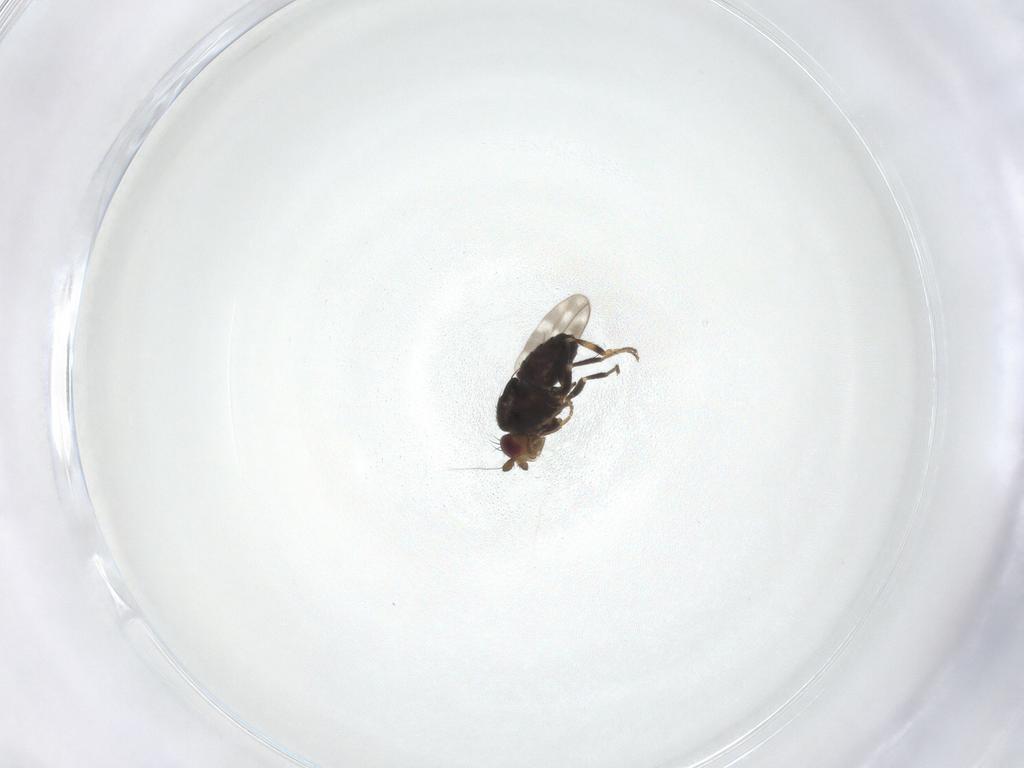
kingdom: Animalia
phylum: Arthropoda
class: Insecta
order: Diptera
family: Sphaeroceridae
